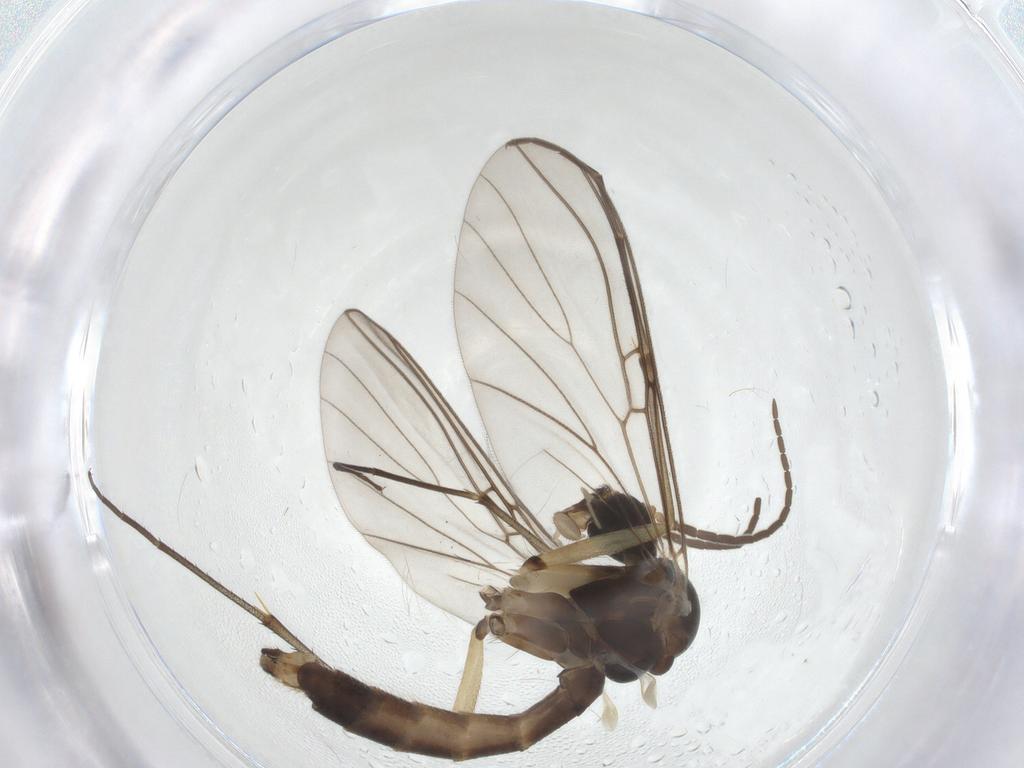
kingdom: Animalia
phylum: Arthropoda
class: Insecta
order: Diptera
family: Mycetophilidae
